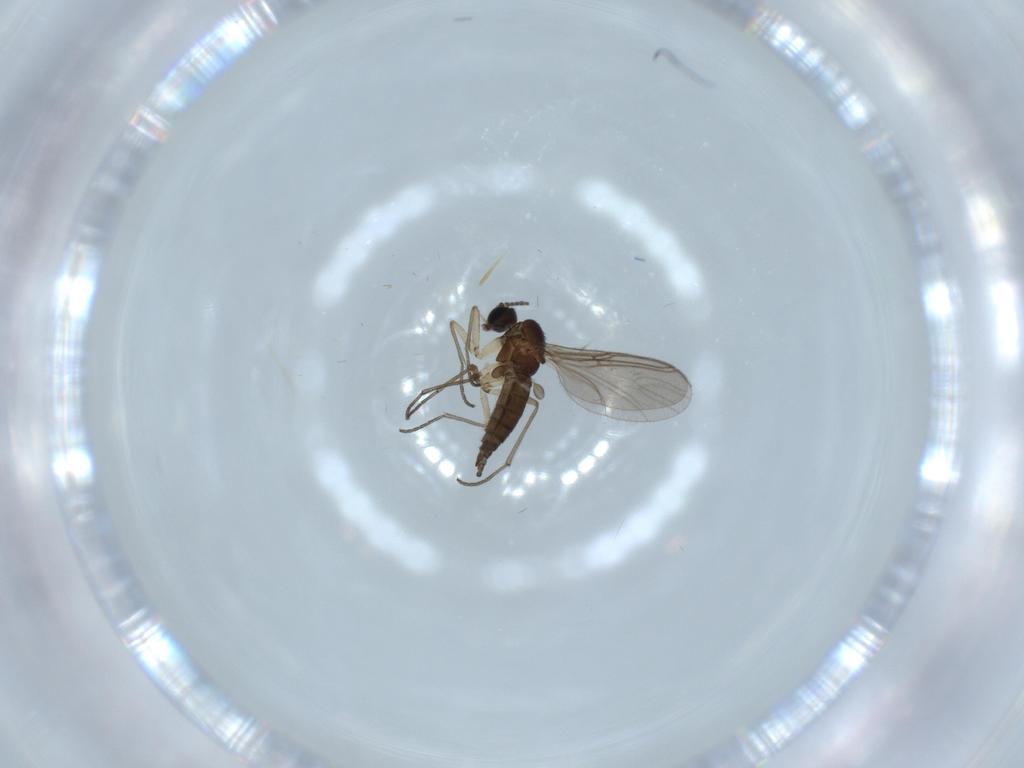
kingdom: Animalia
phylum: Arthropoda
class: Insecta
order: Diptera
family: Sciaridae
